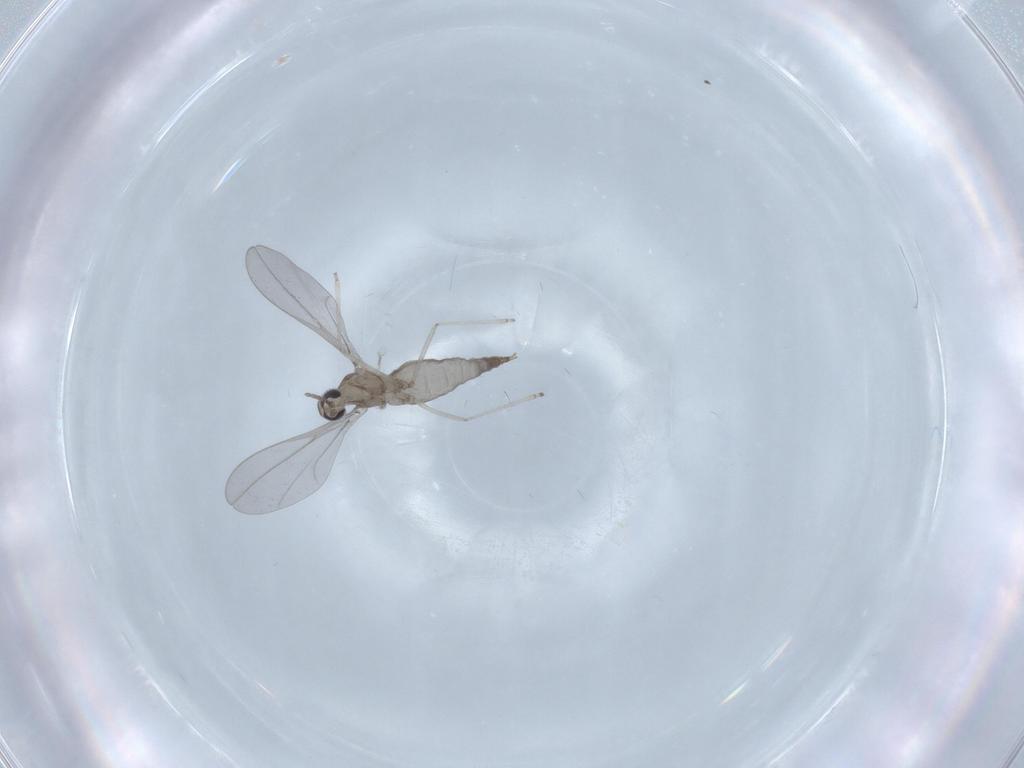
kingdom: Animalia
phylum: Arthropoda
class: Insecta
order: Diptera
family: Cecidomyiidae
